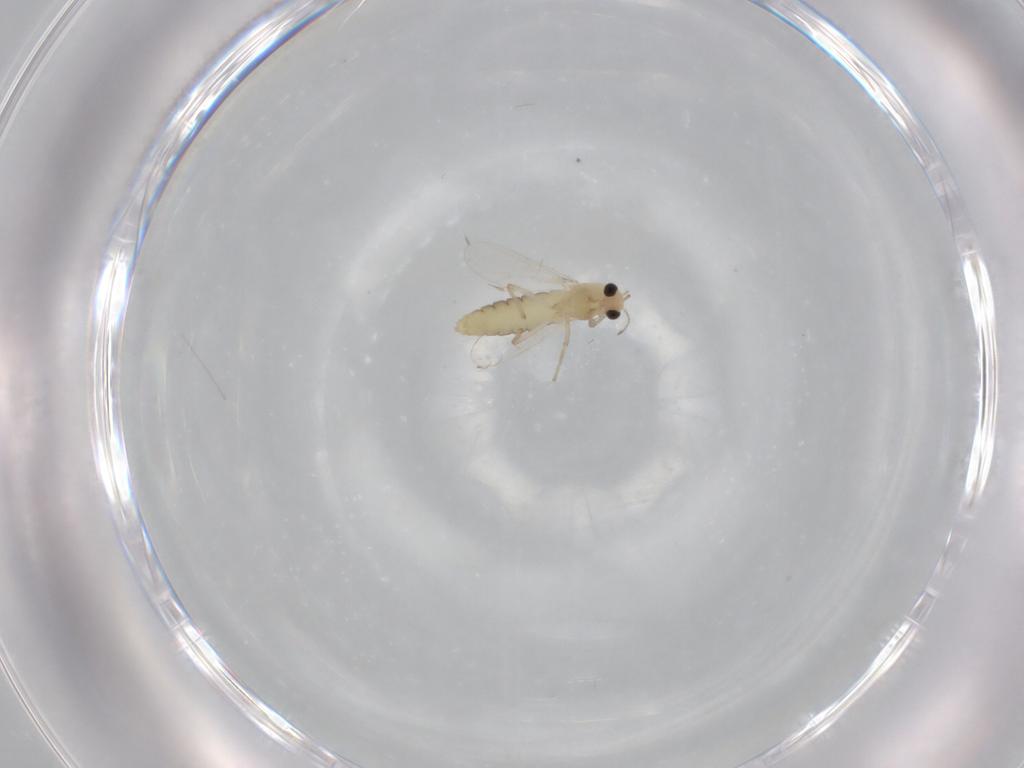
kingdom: Animalia
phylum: Arthropoda
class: Insecta
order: Diptera
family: Chironomidae
